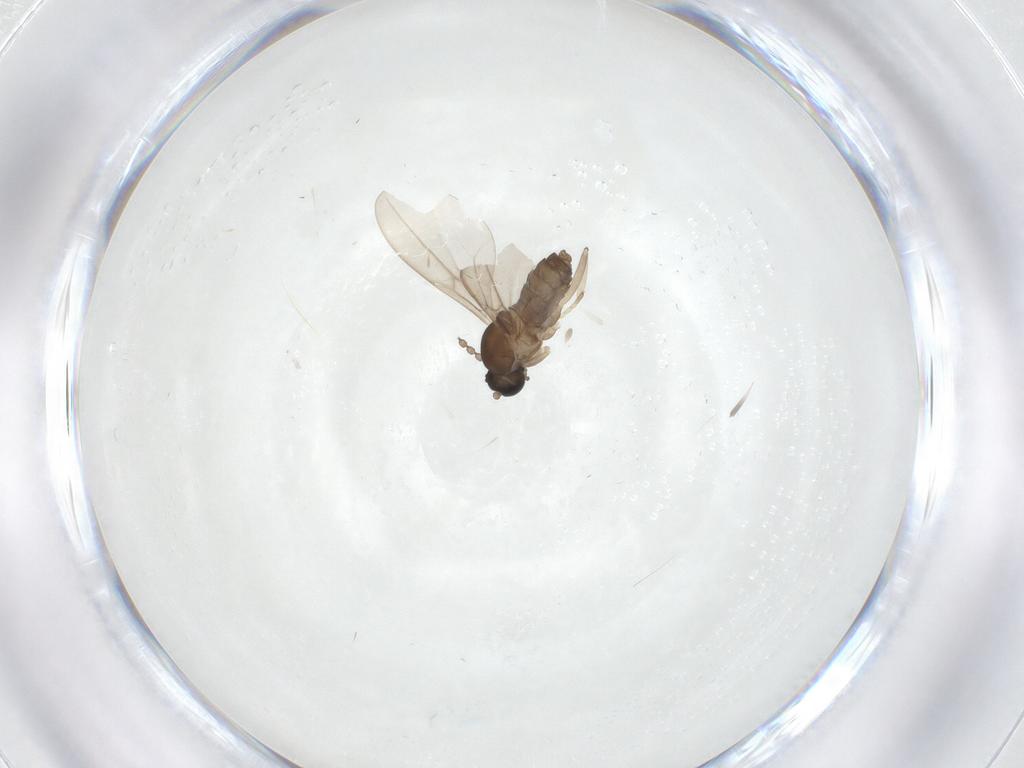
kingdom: Animalia
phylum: Arthropoda
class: Insecta
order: Diptera
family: Cecidomyiidae
